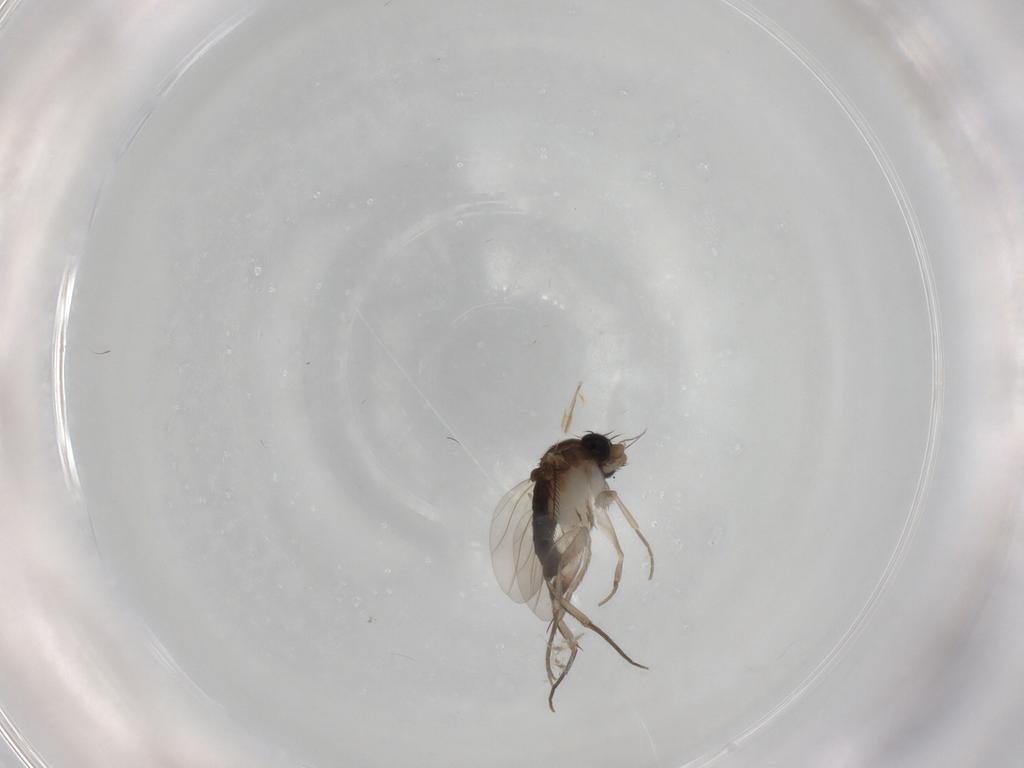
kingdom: Animalia
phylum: Arthropoda
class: Insecta
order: Diptera
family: Phoridae
